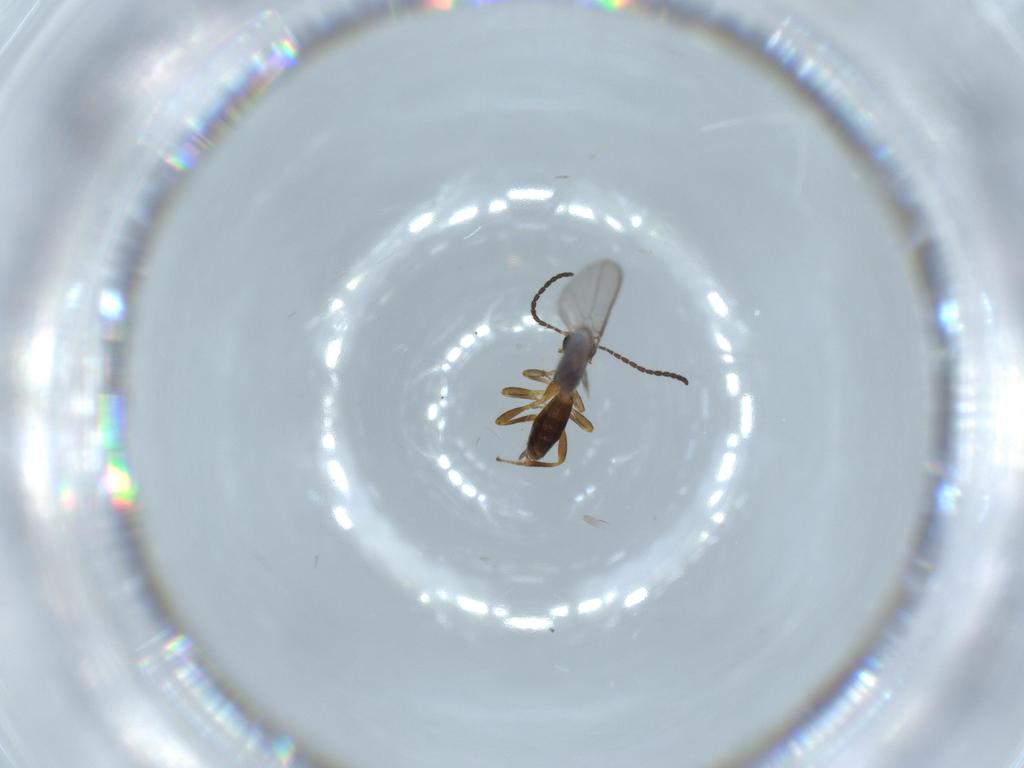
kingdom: Animalia
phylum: Arthropoda
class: Insecta
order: Hymenoptera
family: Braconidae
